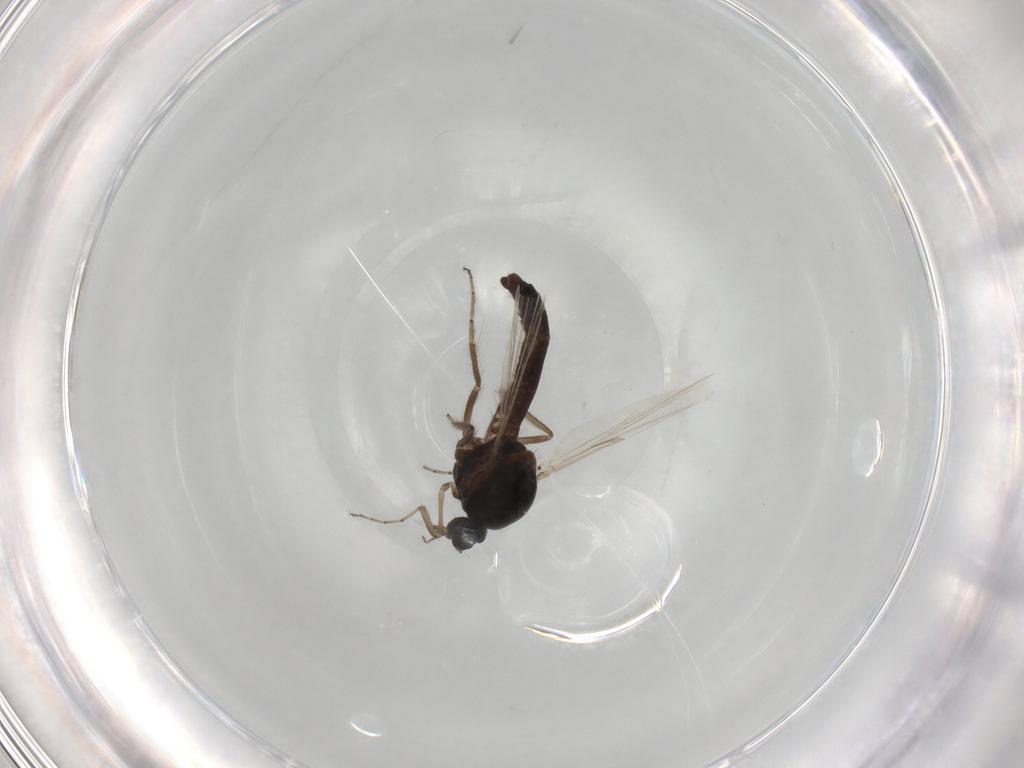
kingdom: Animalia
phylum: Arthropoda
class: Insecta
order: Diptera
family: Ceratopogonidae
